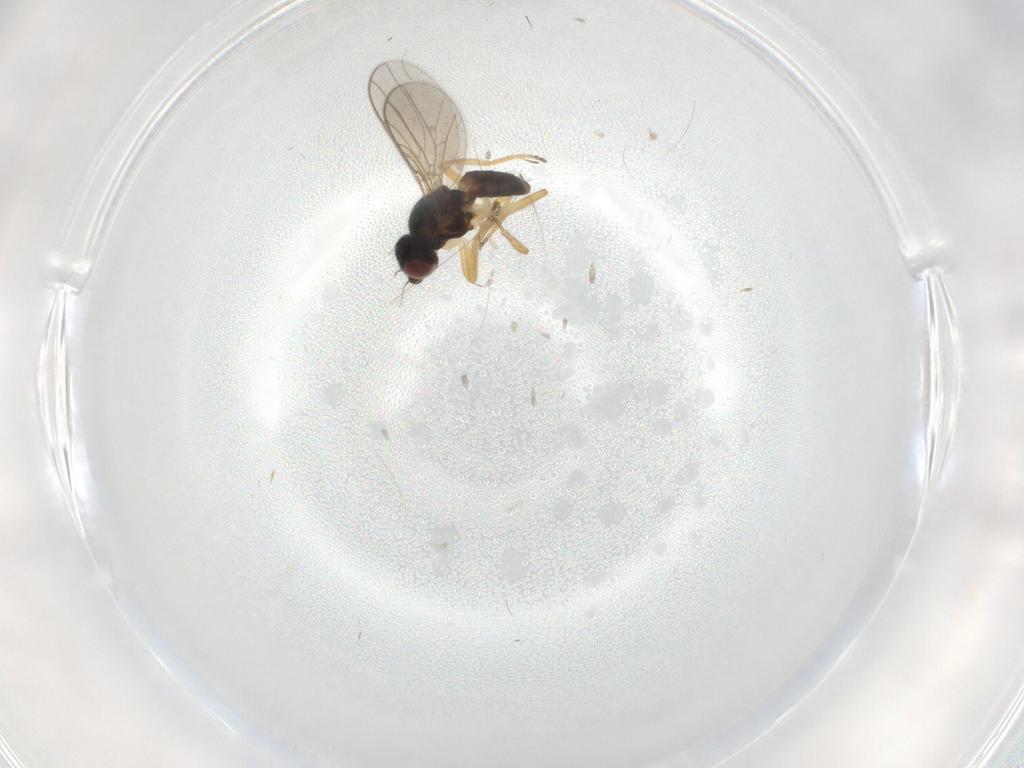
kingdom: Animalia
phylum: Arthropoda
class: Insecta
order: Diptera
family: Chloropidae
